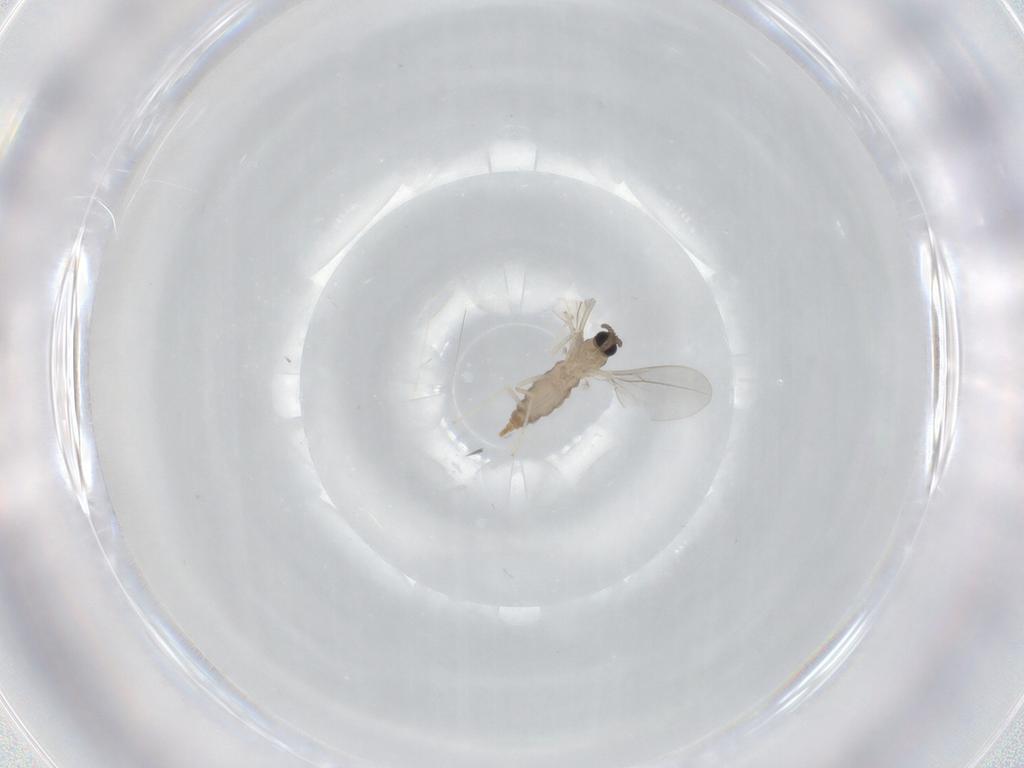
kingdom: Animalia
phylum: Arthropoda
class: Insecta
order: Diptera
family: Cecidomyiidae
